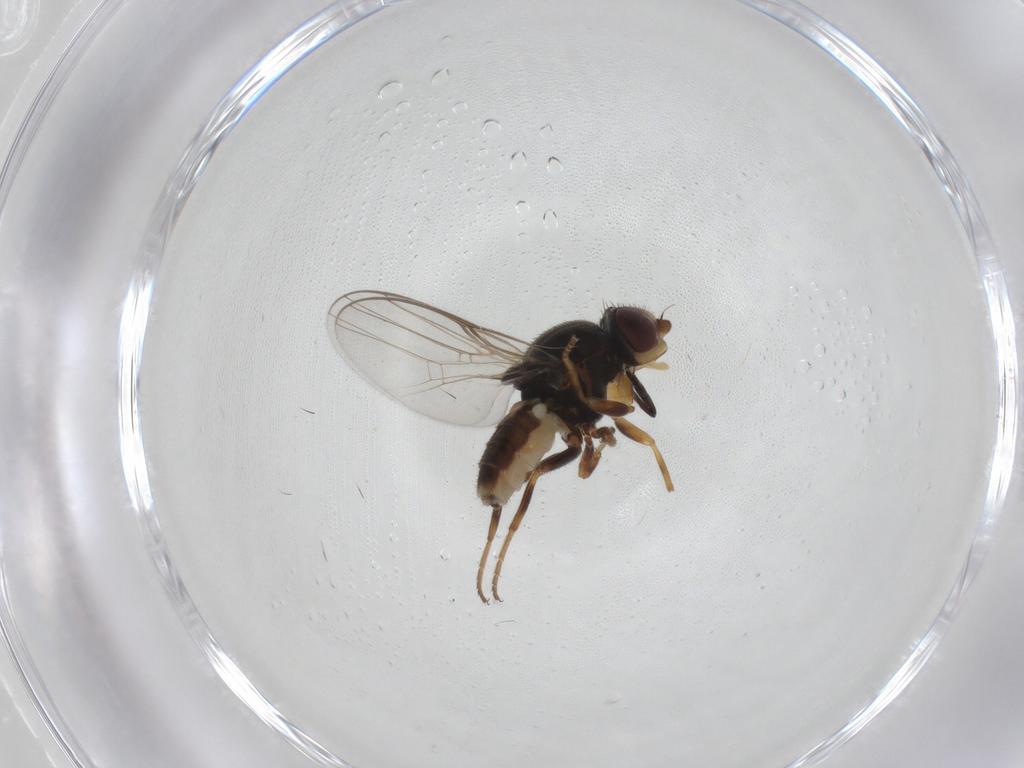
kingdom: Animalia
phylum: Arthropoda
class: Insecta
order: Diptera
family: Chloropidae
